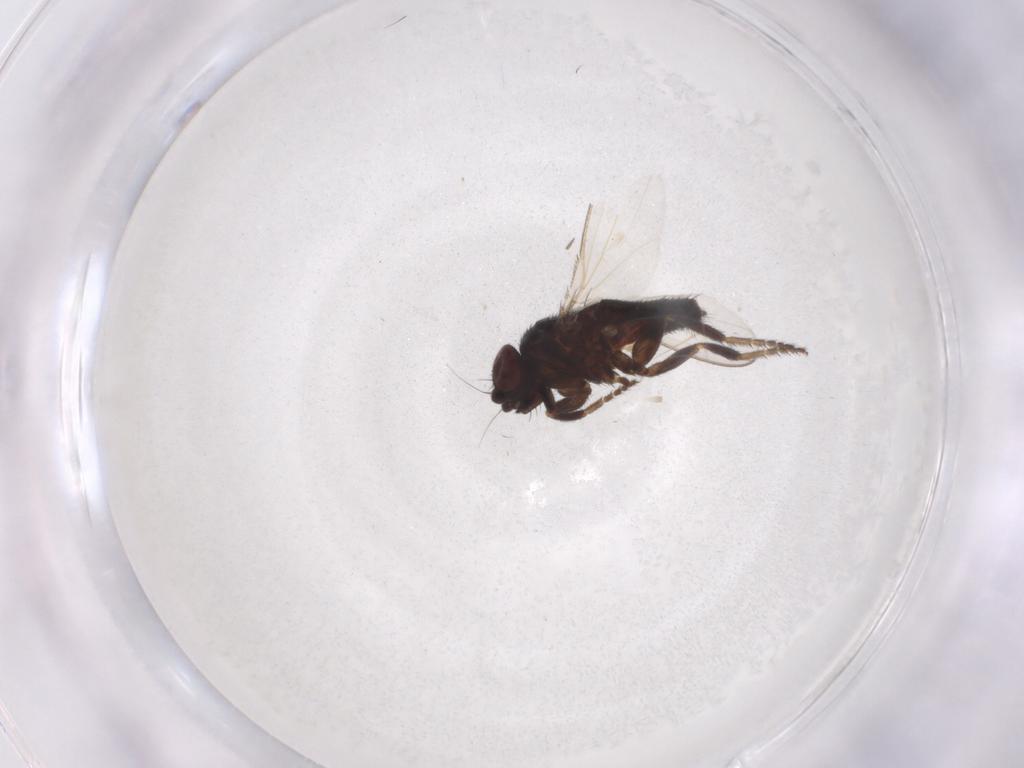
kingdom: Animalia
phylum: Arthropoda
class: Insecta
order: Diptera
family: Milichiidae
